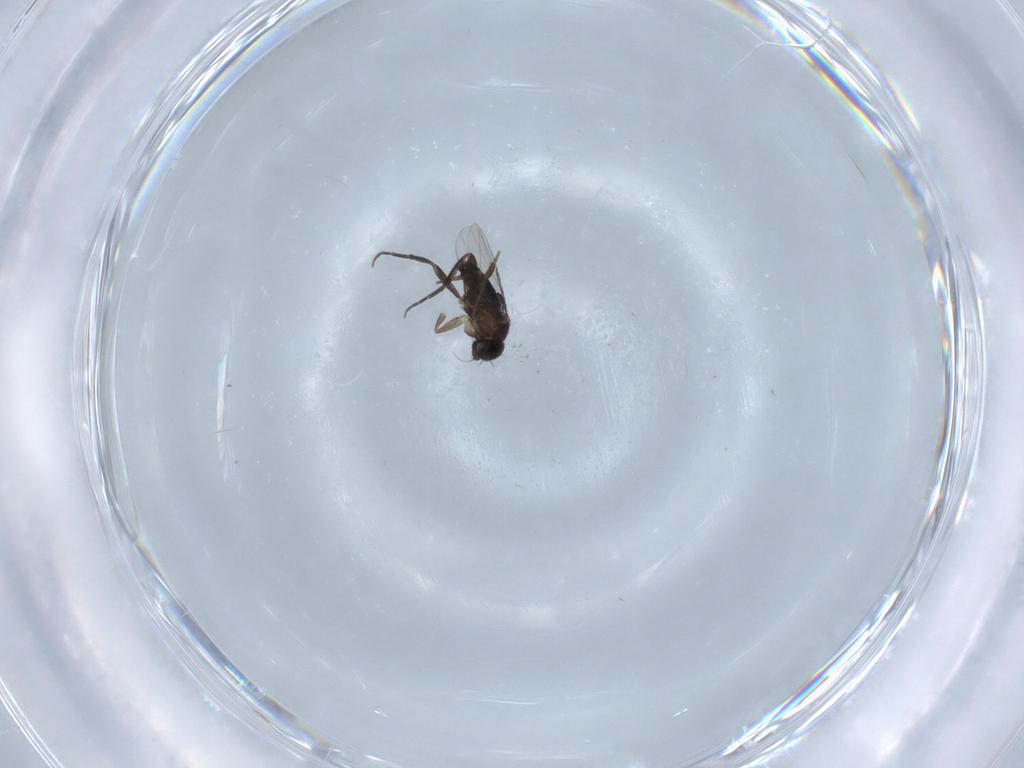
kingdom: Animalia
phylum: Arthropoda
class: Insecta
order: Diptera
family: Phoridae
